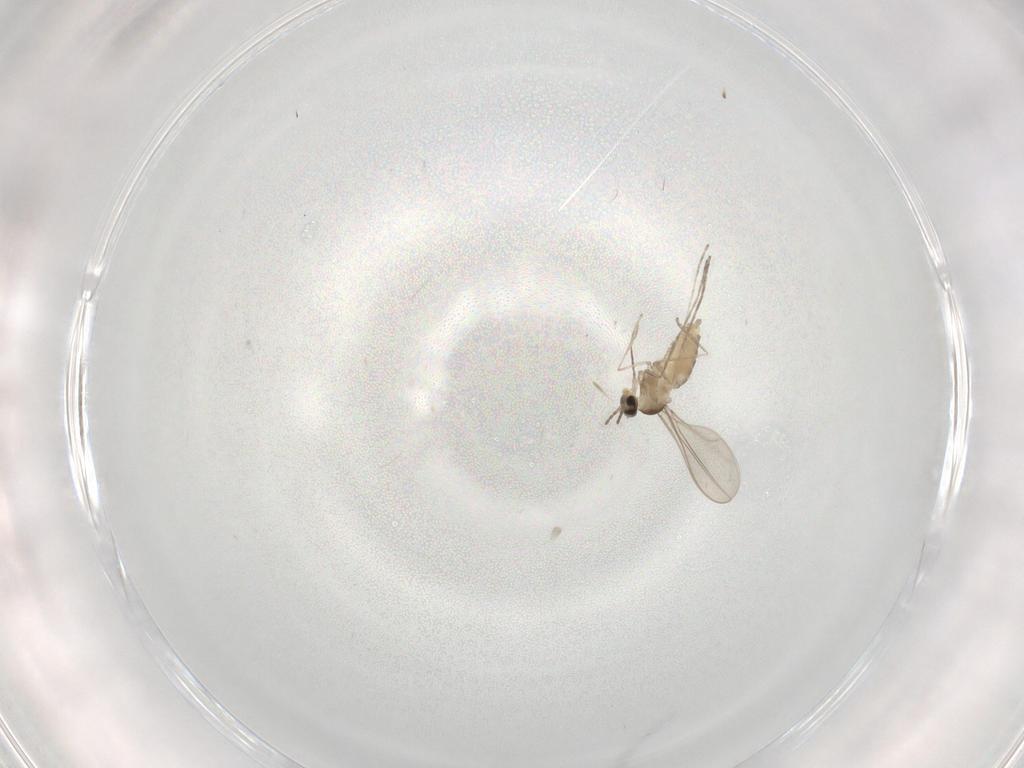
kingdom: Animalia
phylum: Arthropoda
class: Insecta
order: Diptera
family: Cecidomyiidae
